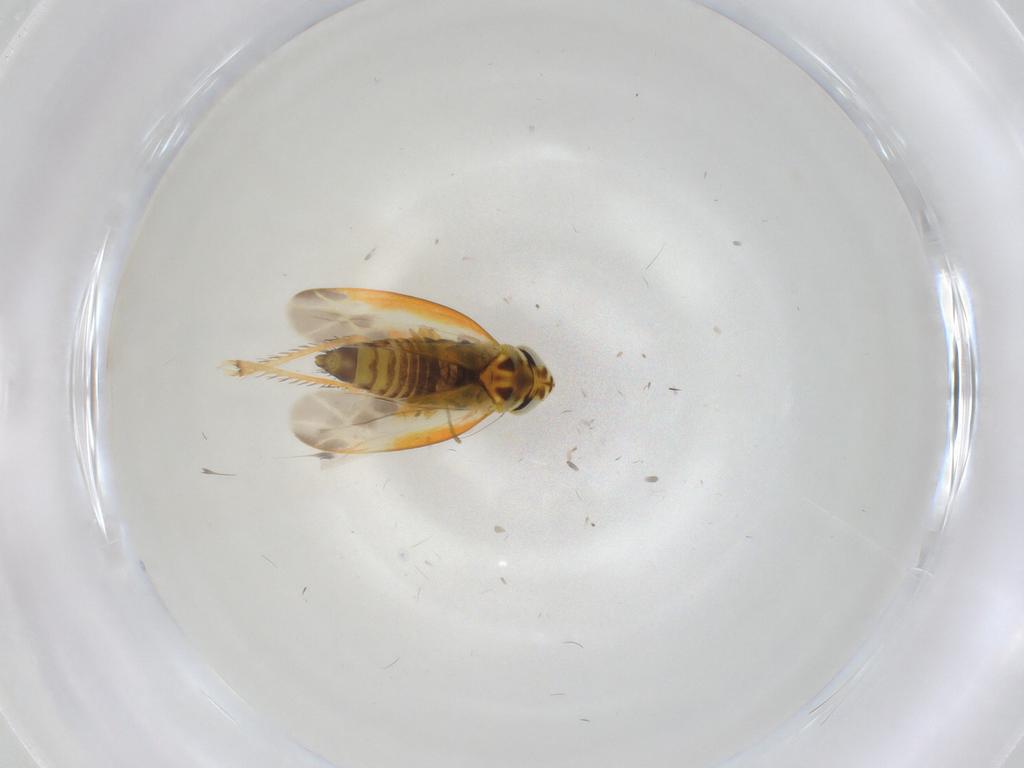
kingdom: Animalia
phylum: Arthropoda
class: Insecta
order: Hemiptera
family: Cicadellidae
